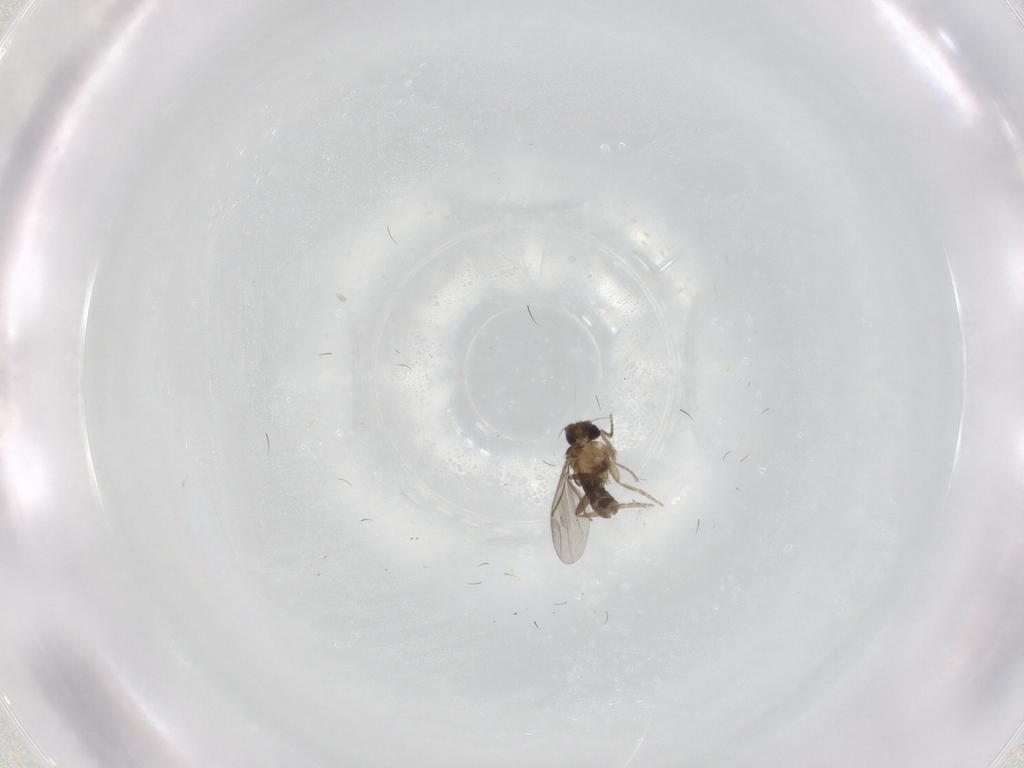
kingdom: Animalia
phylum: Arthropoda
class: Insecta
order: Diptera
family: Tabanidae
